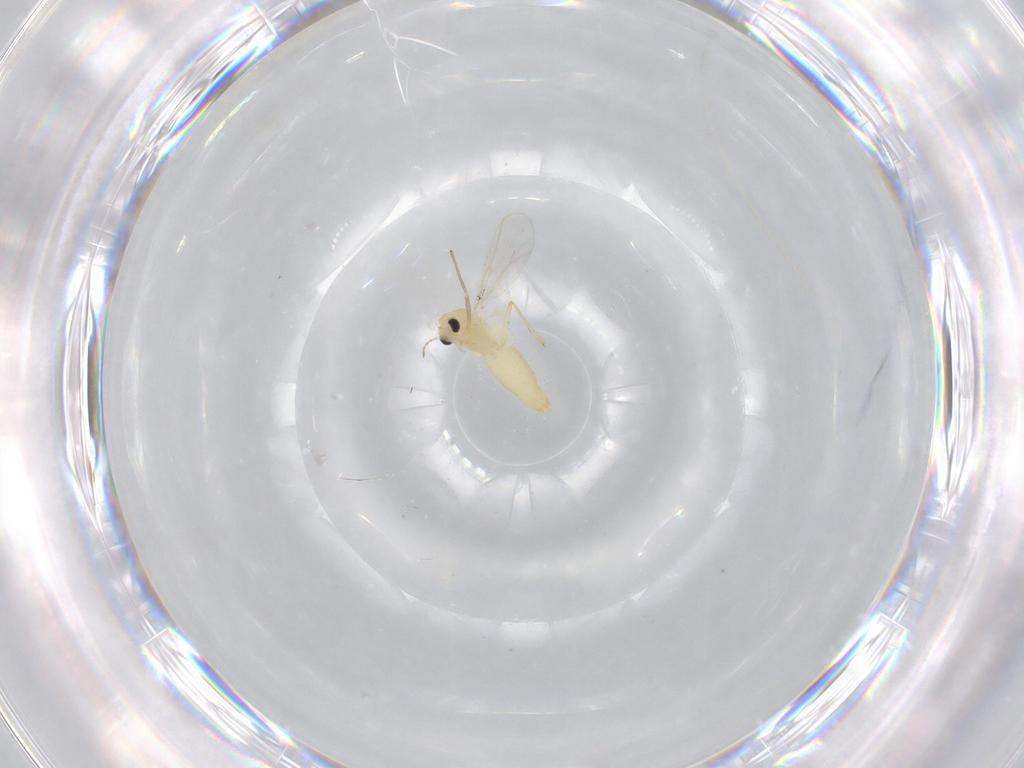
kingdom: Animalia
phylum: Arthropoda
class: Insecta
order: Diptera
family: Chironomidae
